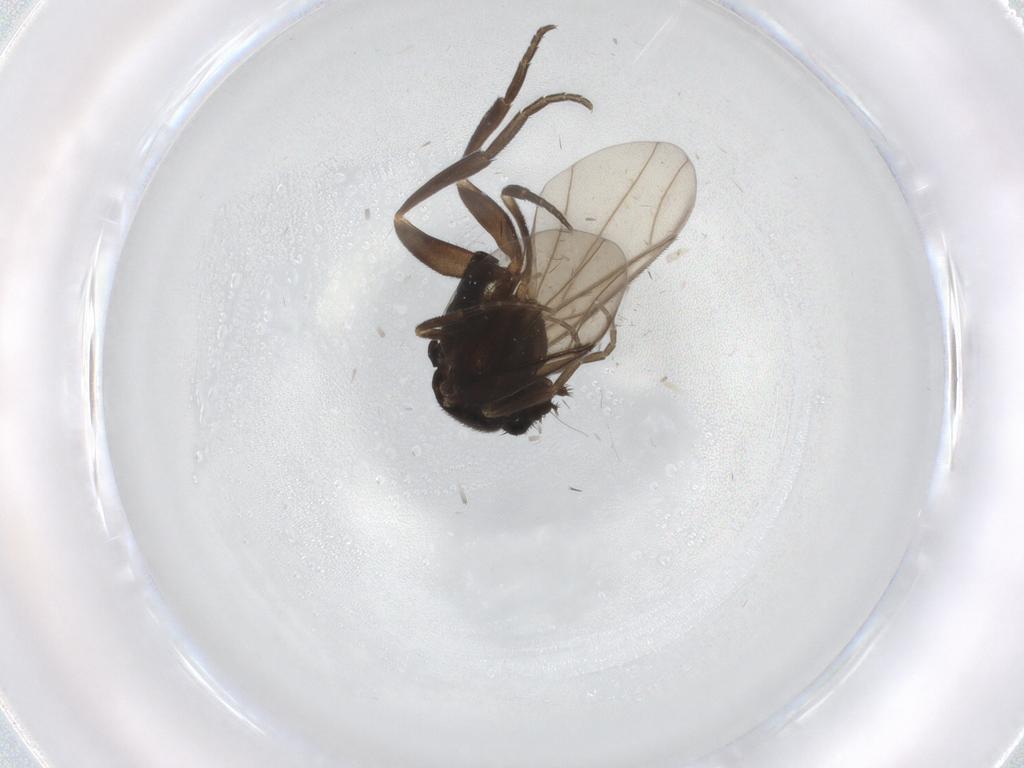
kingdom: Animalia
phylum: Arthropoda
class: Insecta
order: Diptera
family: Phoridae
